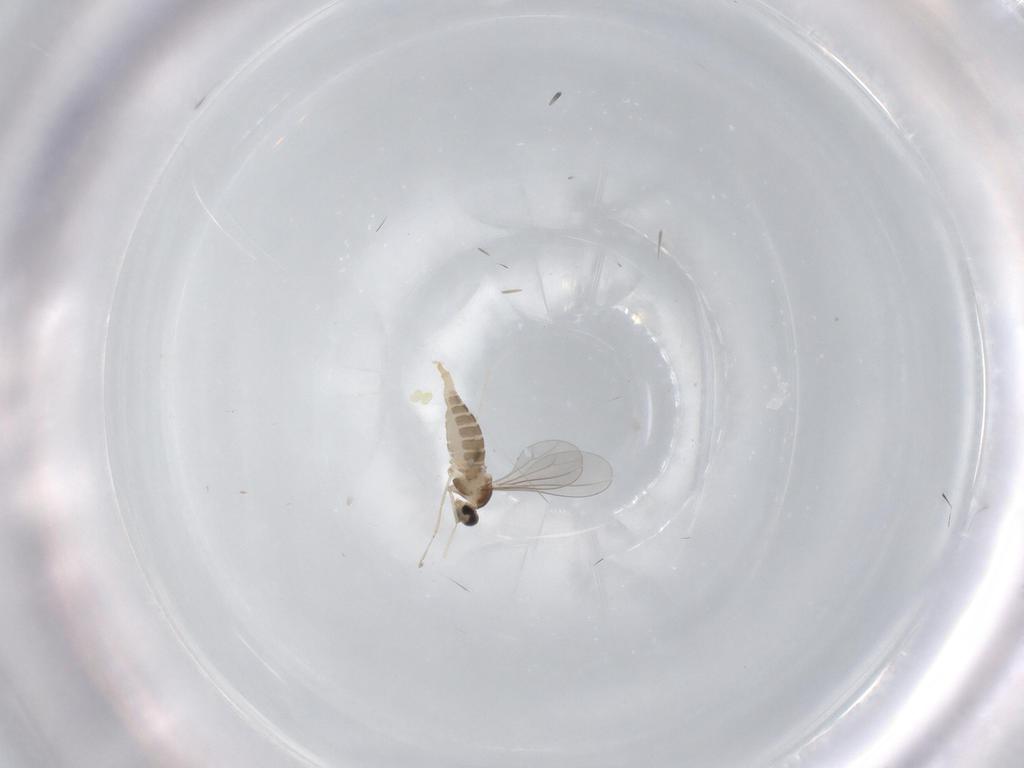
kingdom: Animalia
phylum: Arthropoda
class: Insecta
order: Diptera
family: Cecidomyiidae
